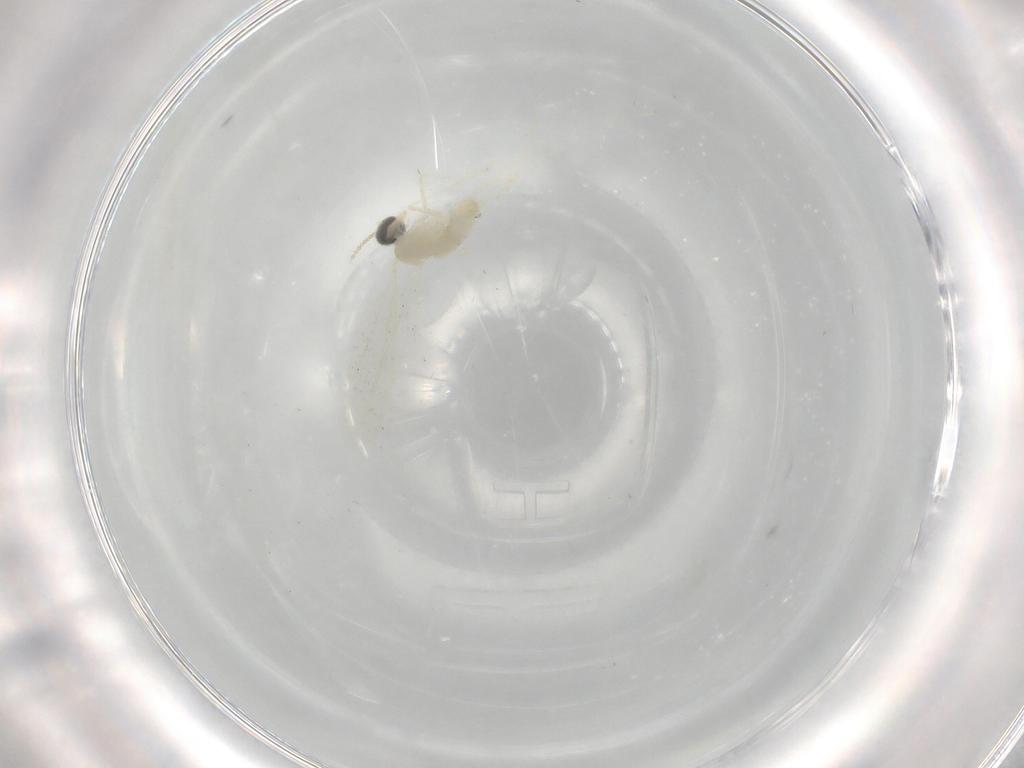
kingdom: Animalia
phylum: Arthropoda
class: Insecta
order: Diptera
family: Cecidomyiidae
